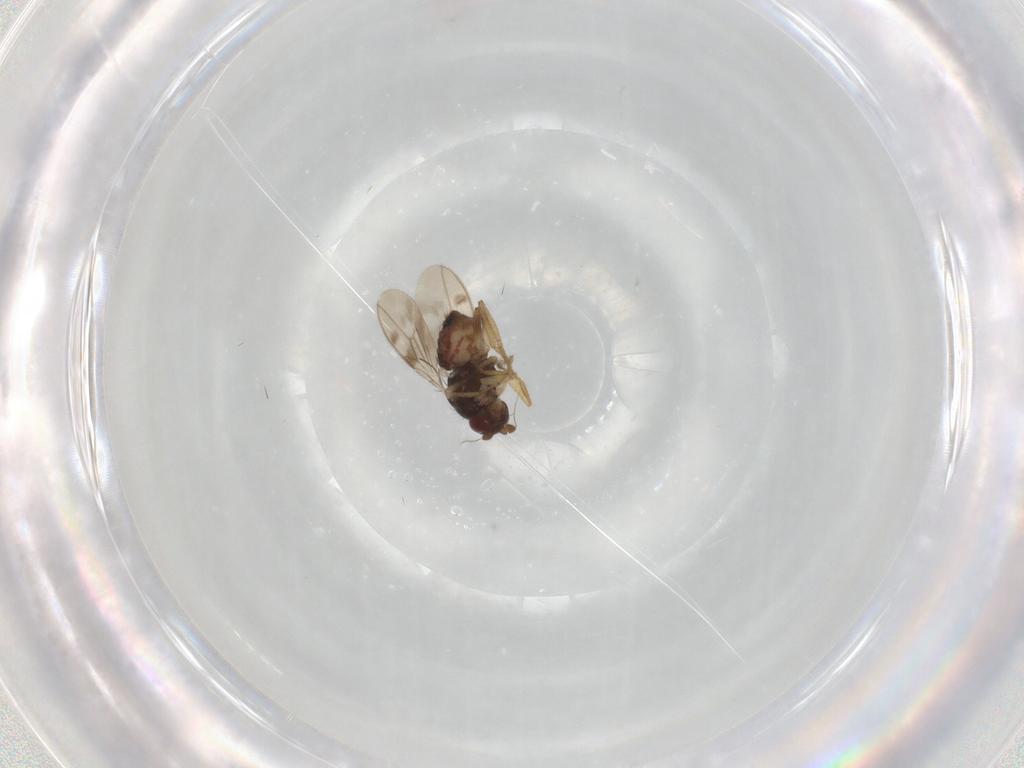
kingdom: Animalia
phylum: Arthropoda
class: Insecta
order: Diptera
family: Sphaeroceridae
